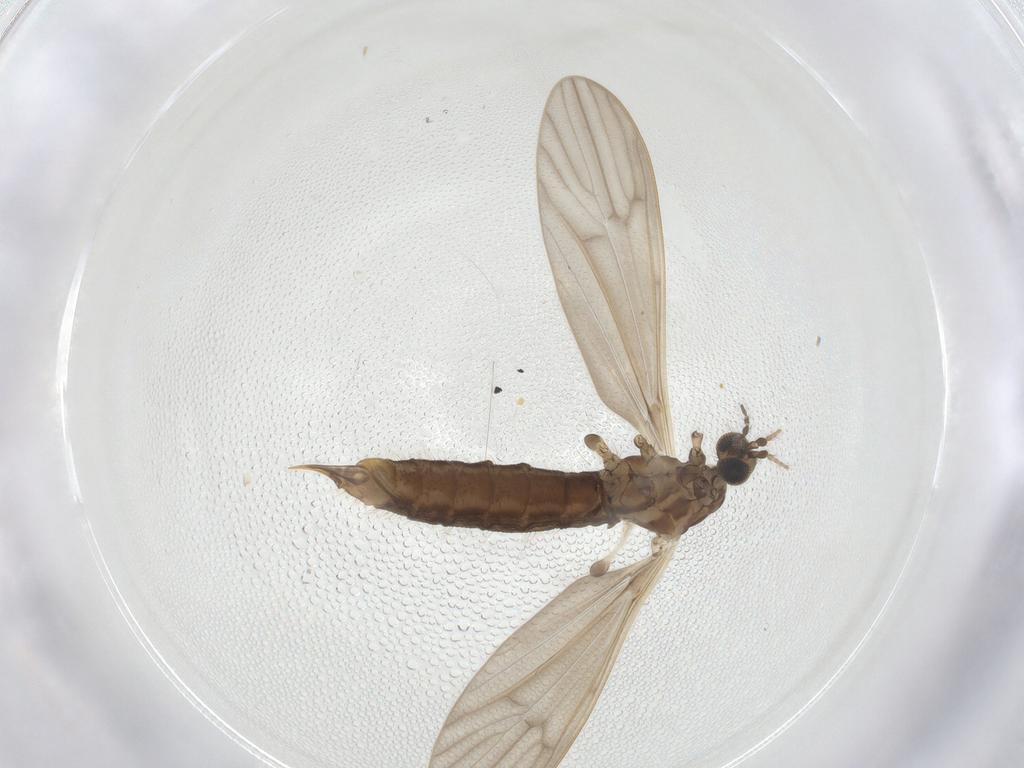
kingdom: Animalia
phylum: Arthropoda
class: Insecta
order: Diptera
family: Limoniidae
